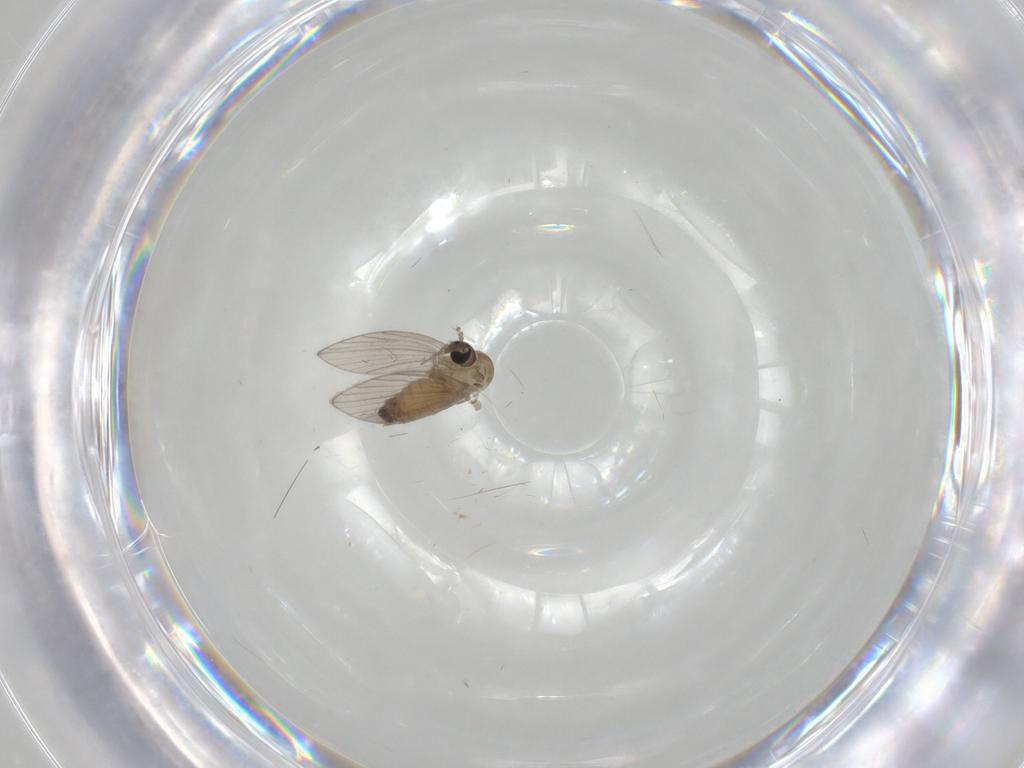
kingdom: Animalia
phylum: Arthropoda
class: Insecta
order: Diptera
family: Psychodidae
